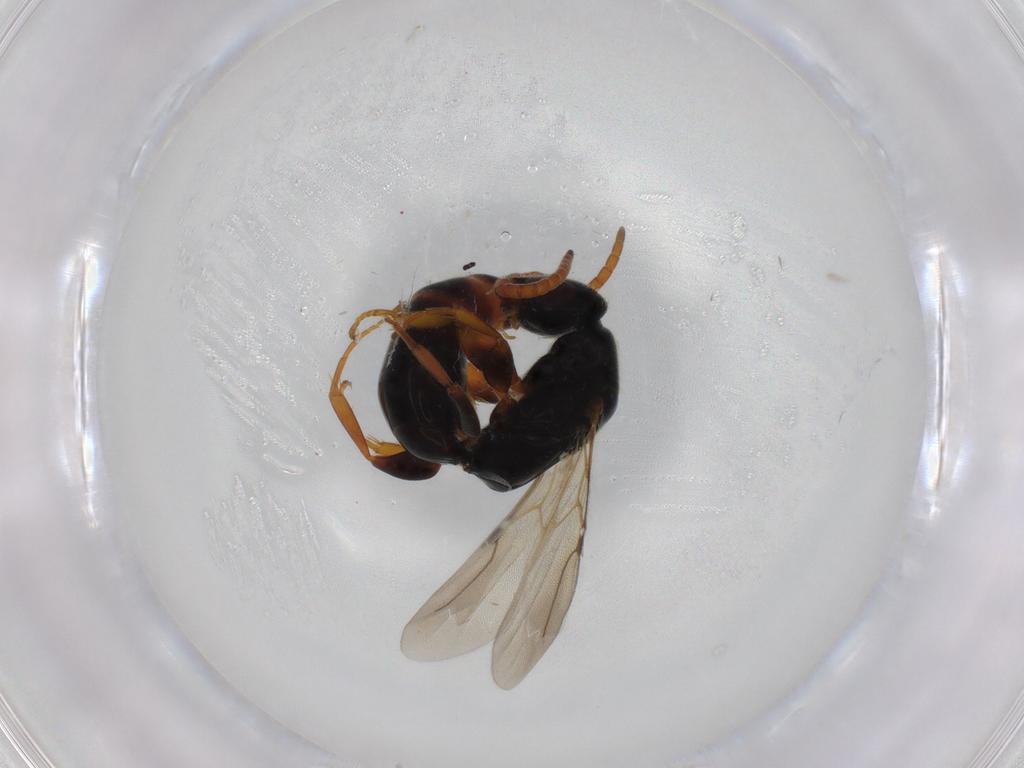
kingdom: Animalia
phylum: Arthropoda
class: Insecta
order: Hymenoptera
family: Bethylidae
